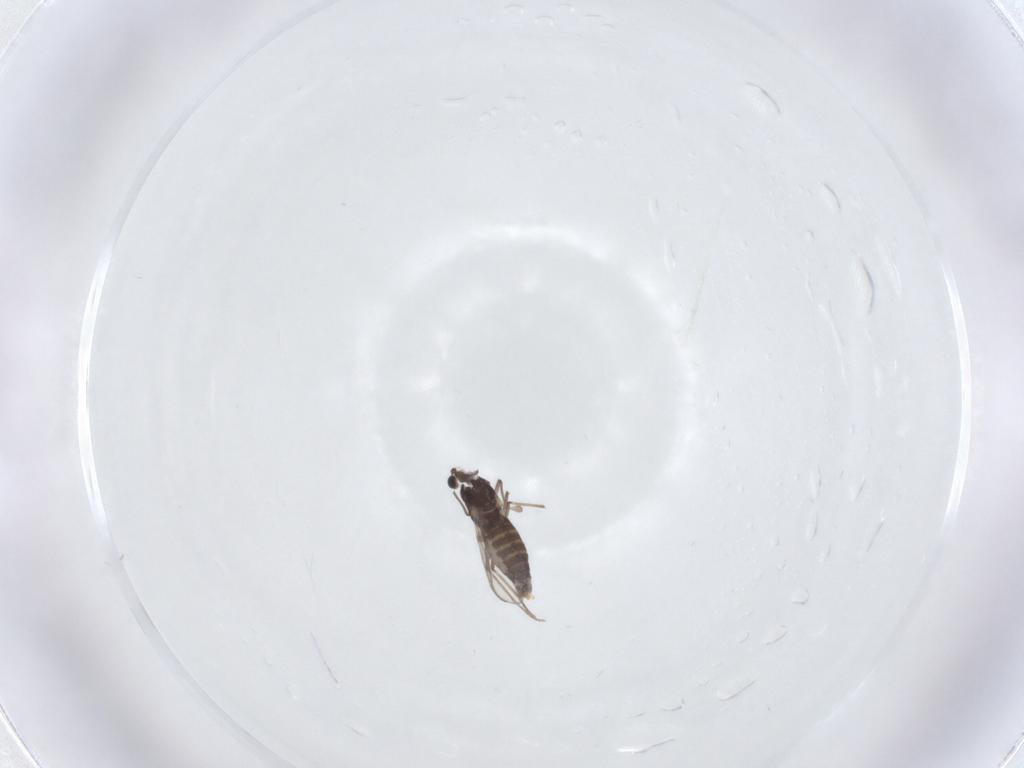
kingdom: Animalia
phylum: Arthropoda
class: Insecta
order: Diptera
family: Chironomidae
